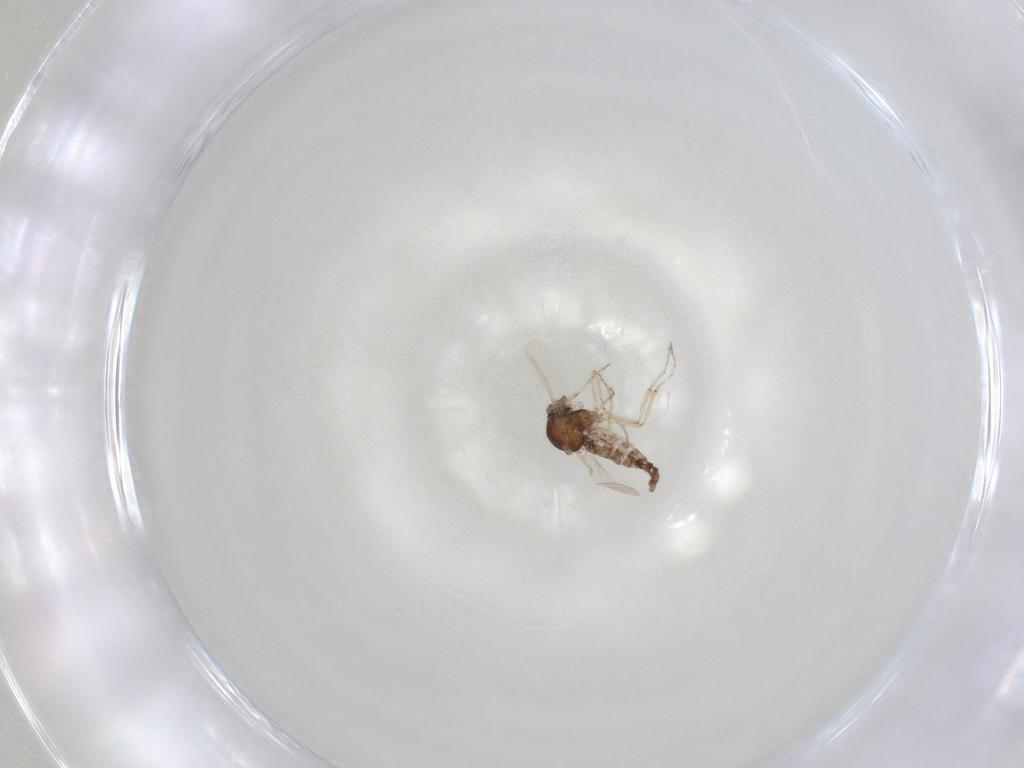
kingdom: Animalia
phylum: Arthropoda
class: Insecta
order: Diptera
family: Ceratopogonidae
